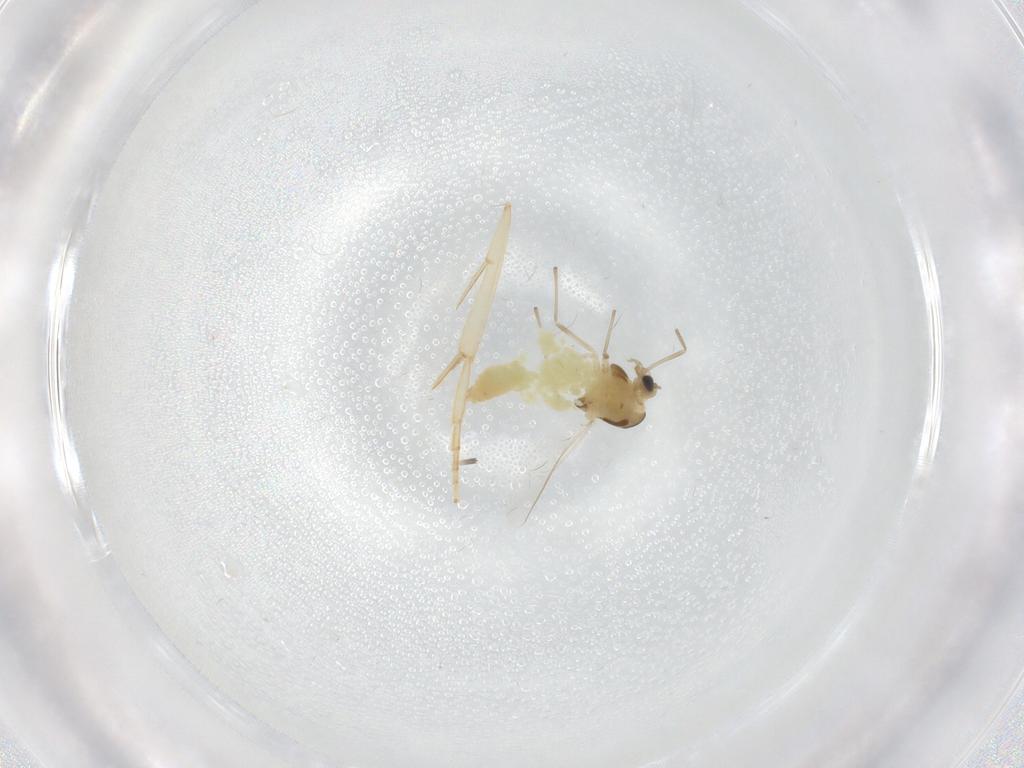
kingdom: Animalia
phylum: Arthropoda
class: Insecta
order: Diptera
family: Chironomidae
